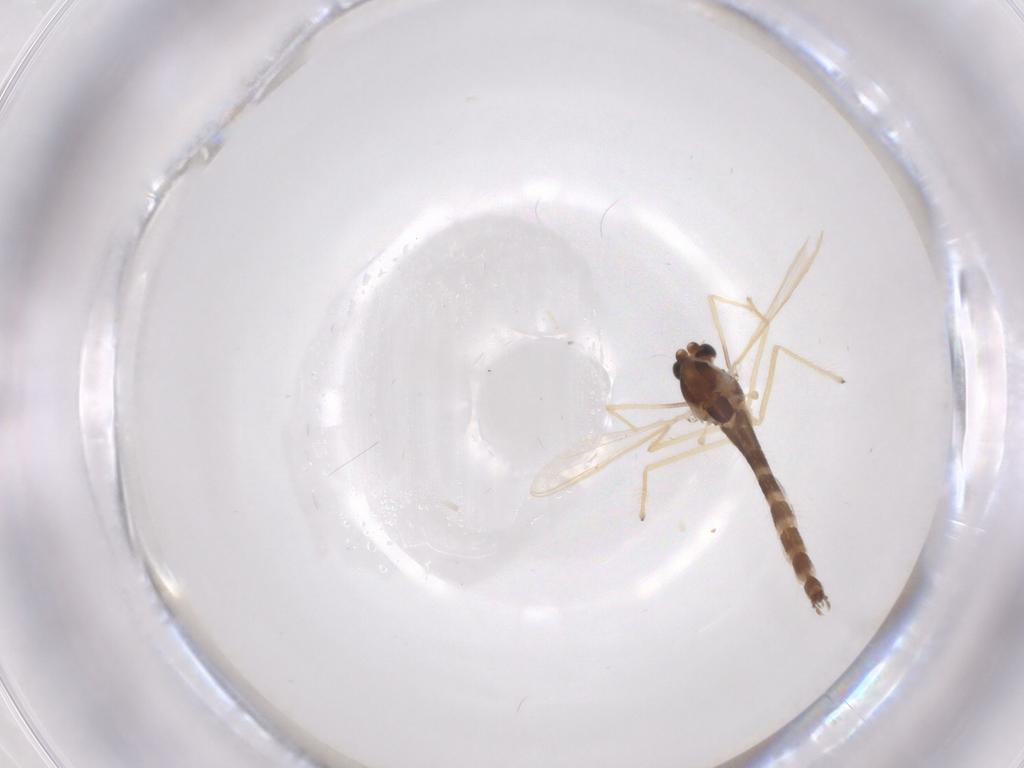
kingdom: Animalia
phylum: Arthropoda
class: Insecta
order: Diptera
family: Chironomidae
